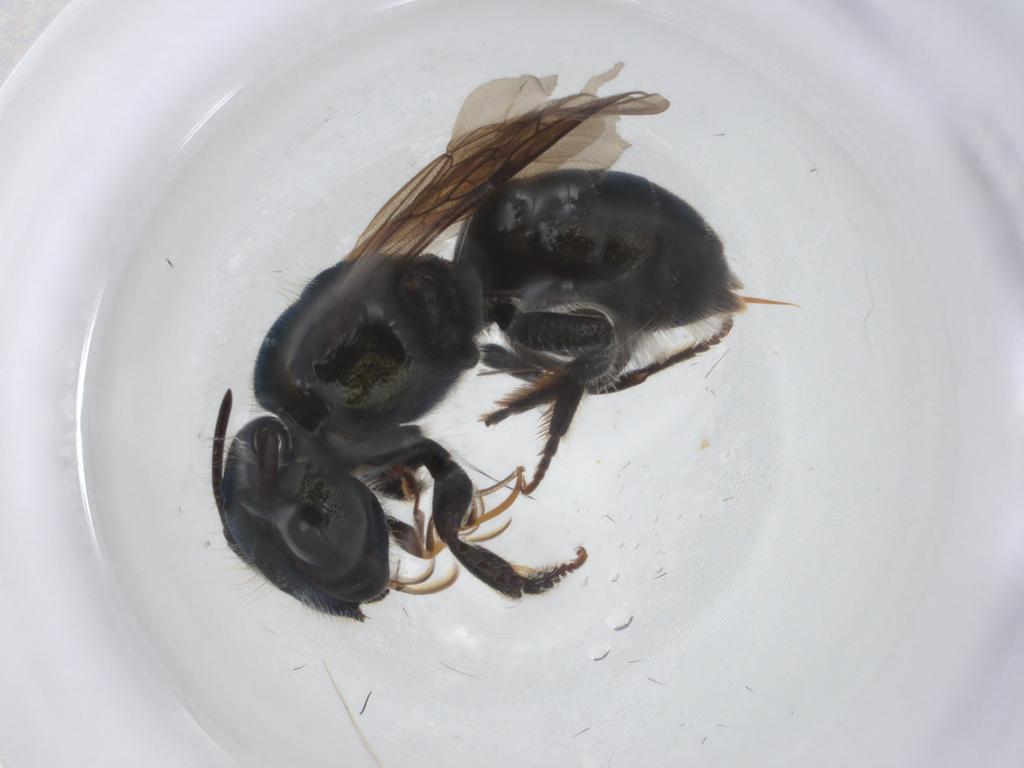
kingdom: Animalia
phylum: Arthropoda
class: Insecta
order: Hymenoptera
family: Megachilidae
